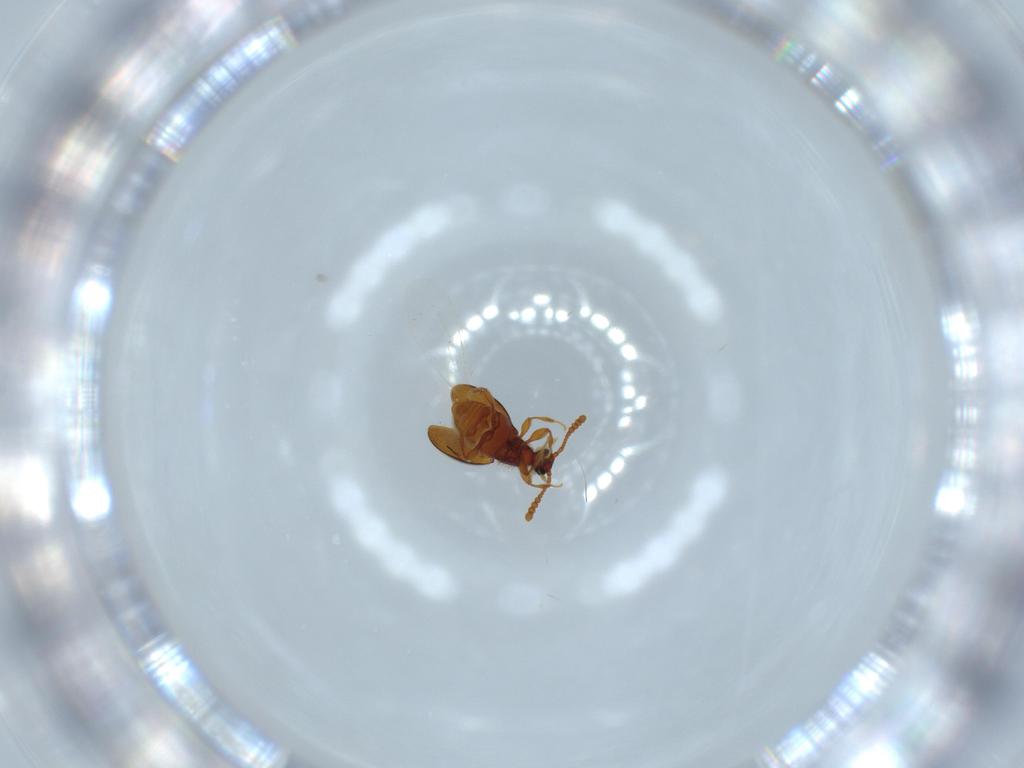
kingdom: Animalia
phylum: Arthropoda
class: Insecta
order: Coleoptera
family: Staphylinidae
